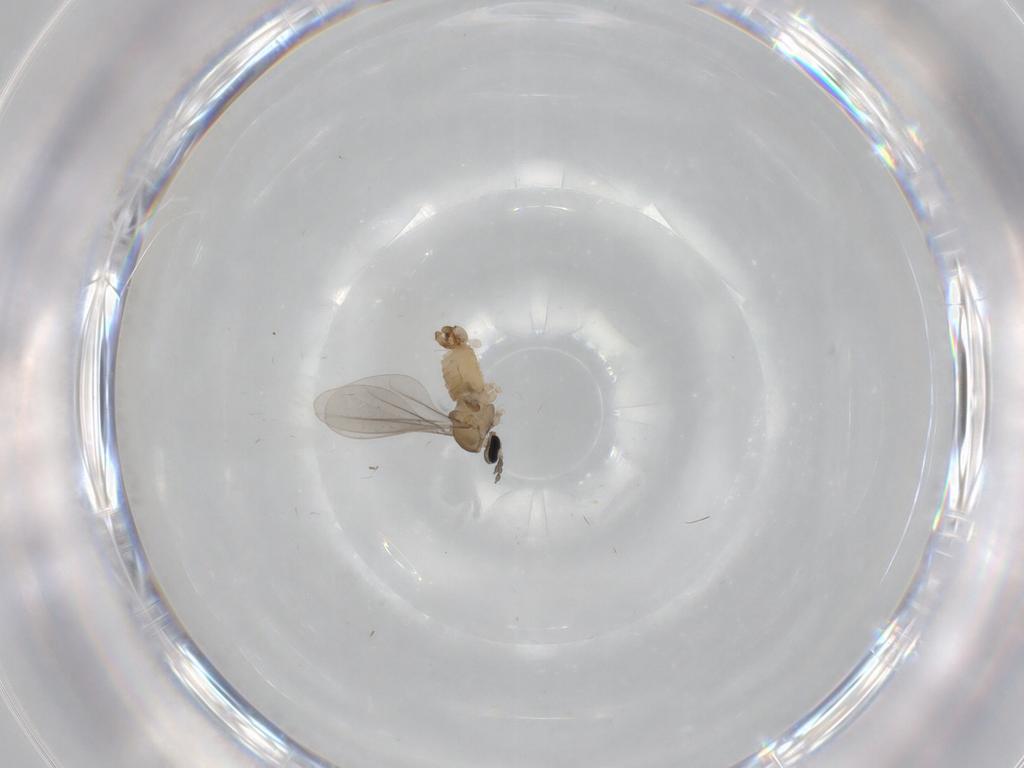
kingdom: Animalia
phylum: Arthropoda
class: Insecta
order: Diptera
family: Cecidomyiidae
